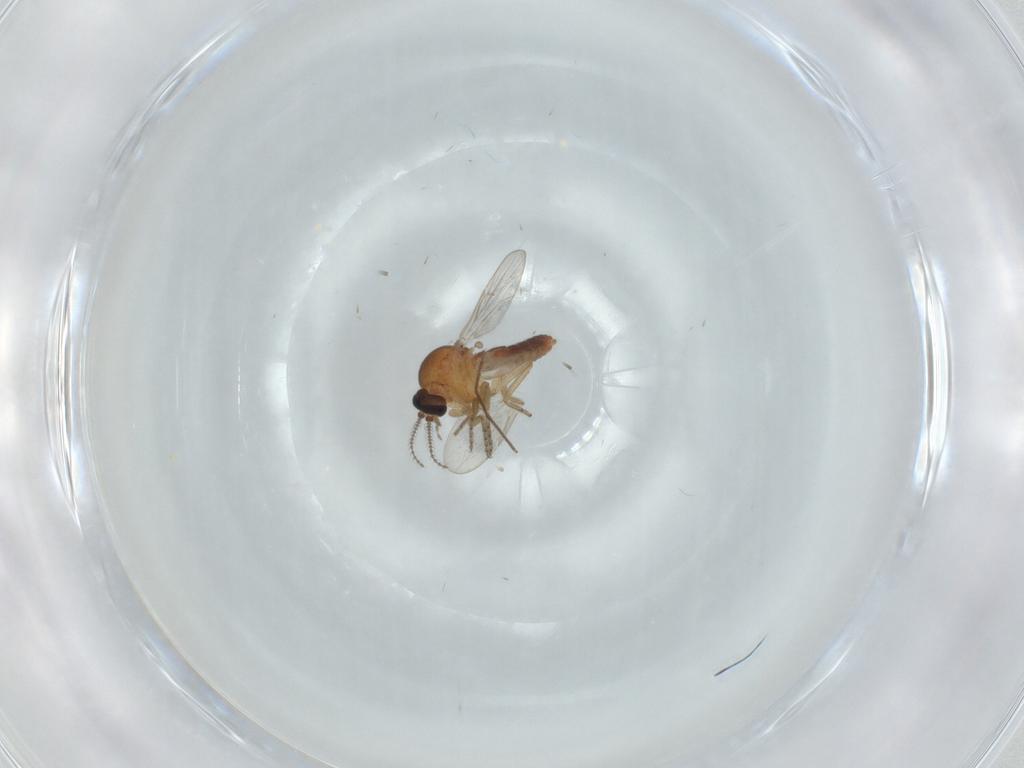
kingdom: Animalia
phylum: Arthropoda
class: Insecta
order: Diptera
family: Ceratopogonidae
